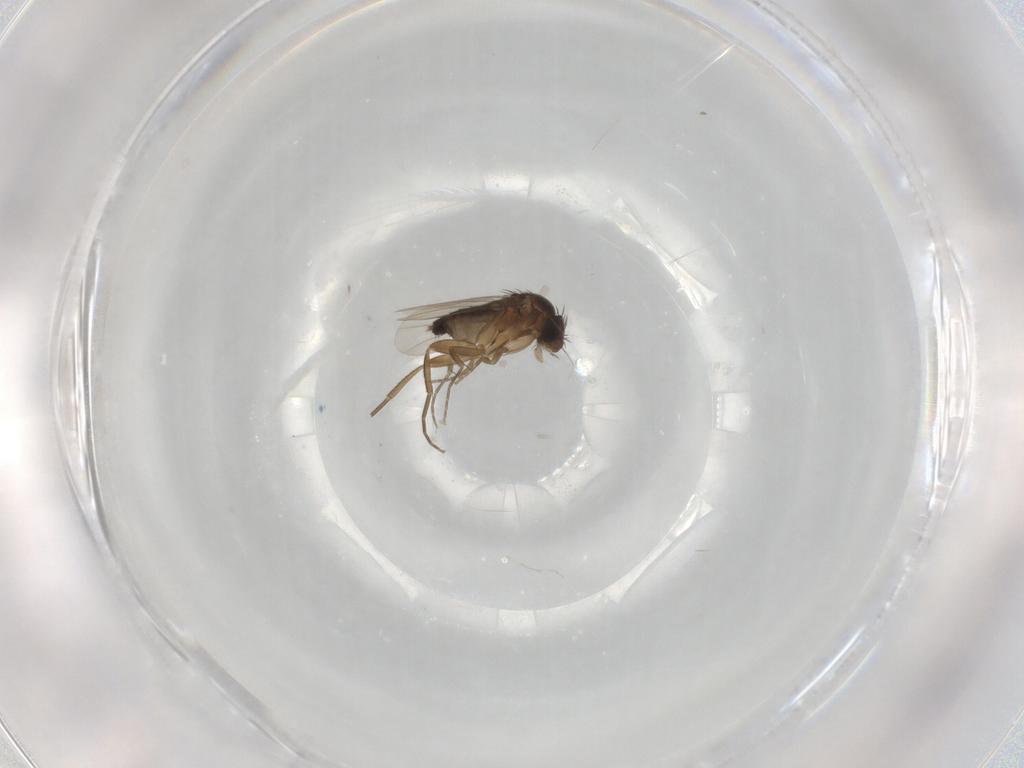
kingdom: Animalia
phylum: Arthropoda
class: Insecta
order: Diptera
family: Phoridae
